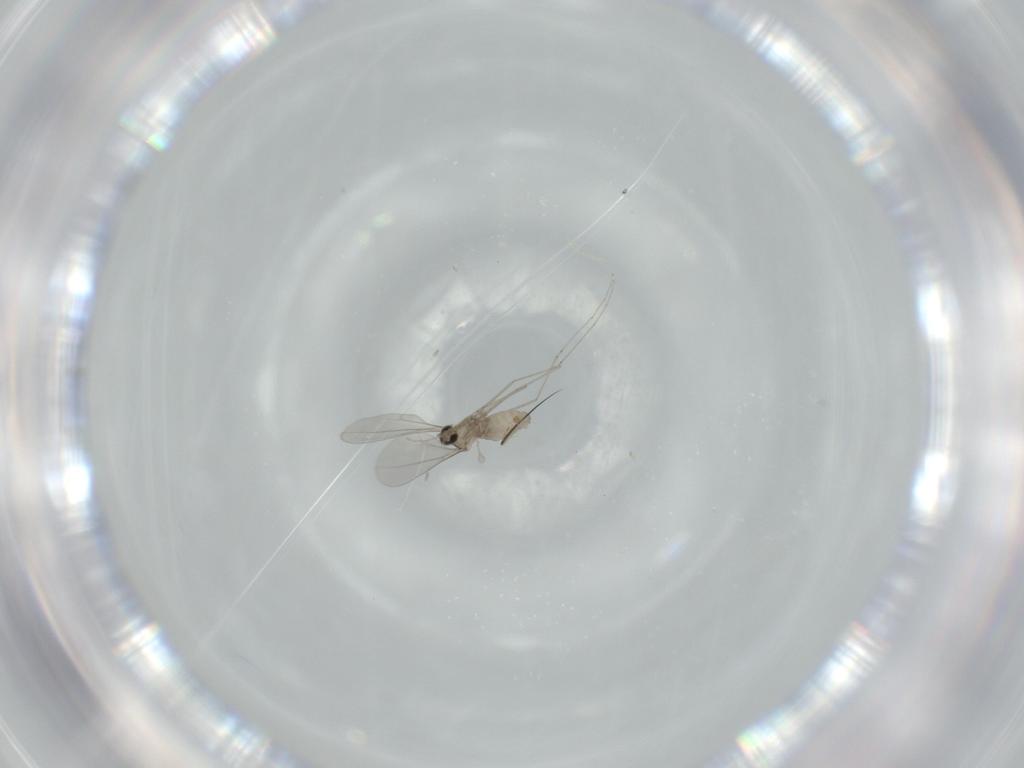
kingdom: Animalia
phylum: Arthropoda
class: Insecta
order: Diptera
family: Cecidomyiidae
